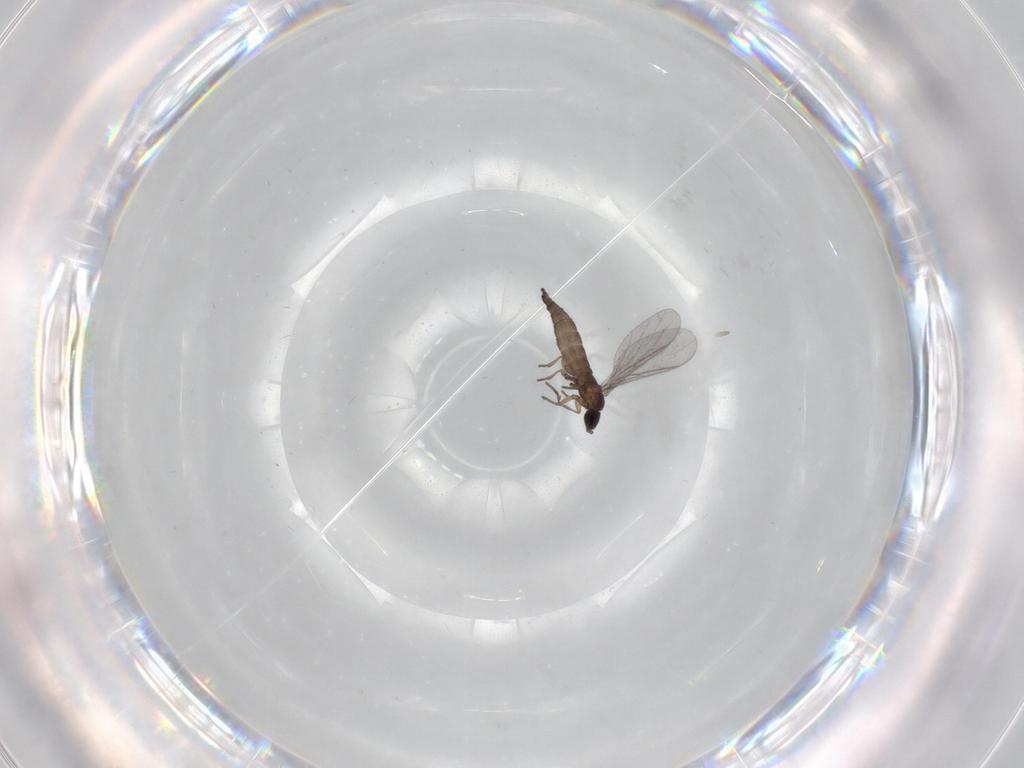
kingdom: Animalia
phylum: Arthropoda
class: Insecta
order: Diptera
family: Sciaridae
